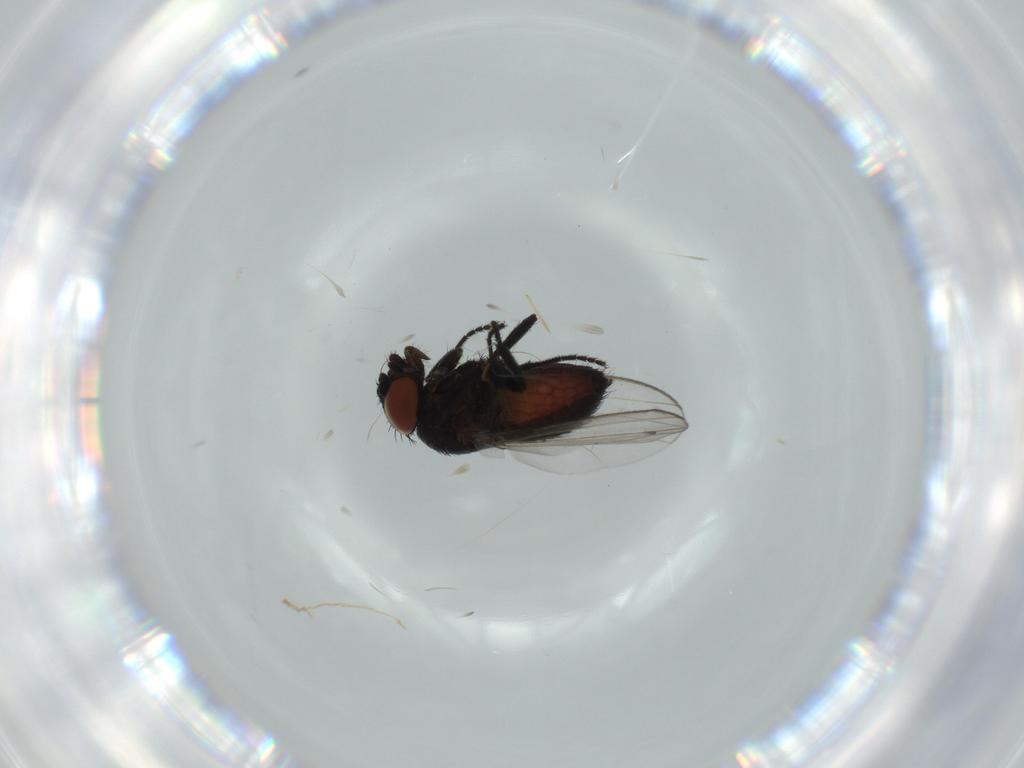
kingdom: Animalia
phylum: Arthropoda
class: Insecta
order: Diptera
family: Milichiidae
